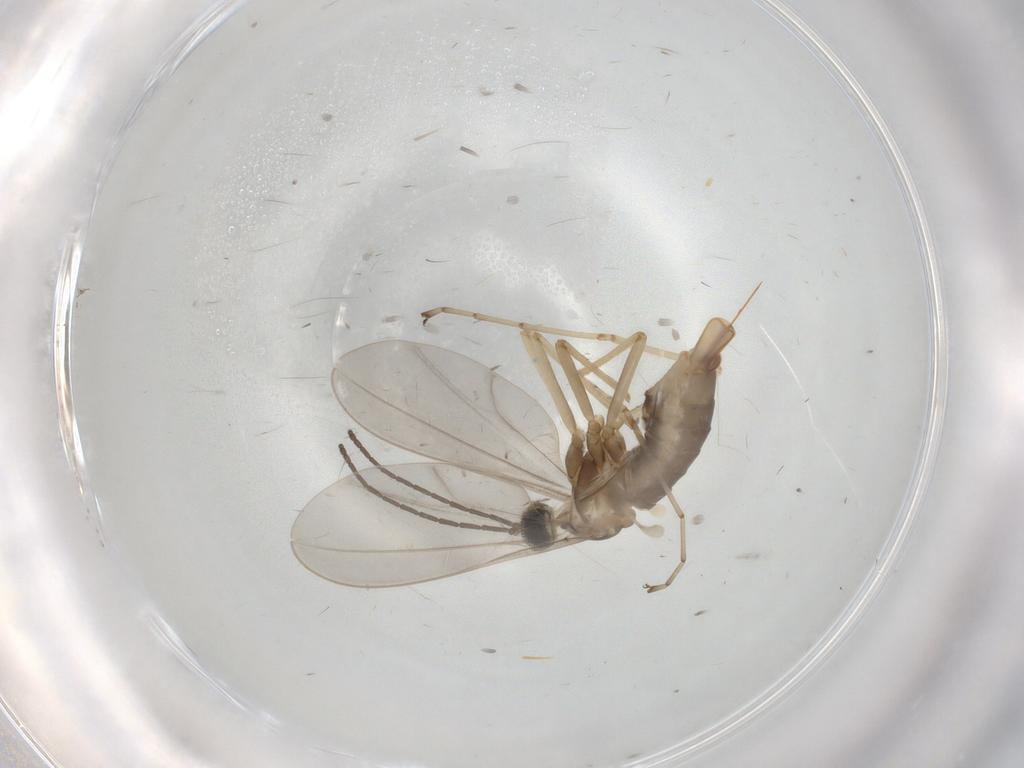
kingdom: Animalia
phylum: Arthropoda
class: Insecta
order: Diptera
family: Cecidomyiidae
